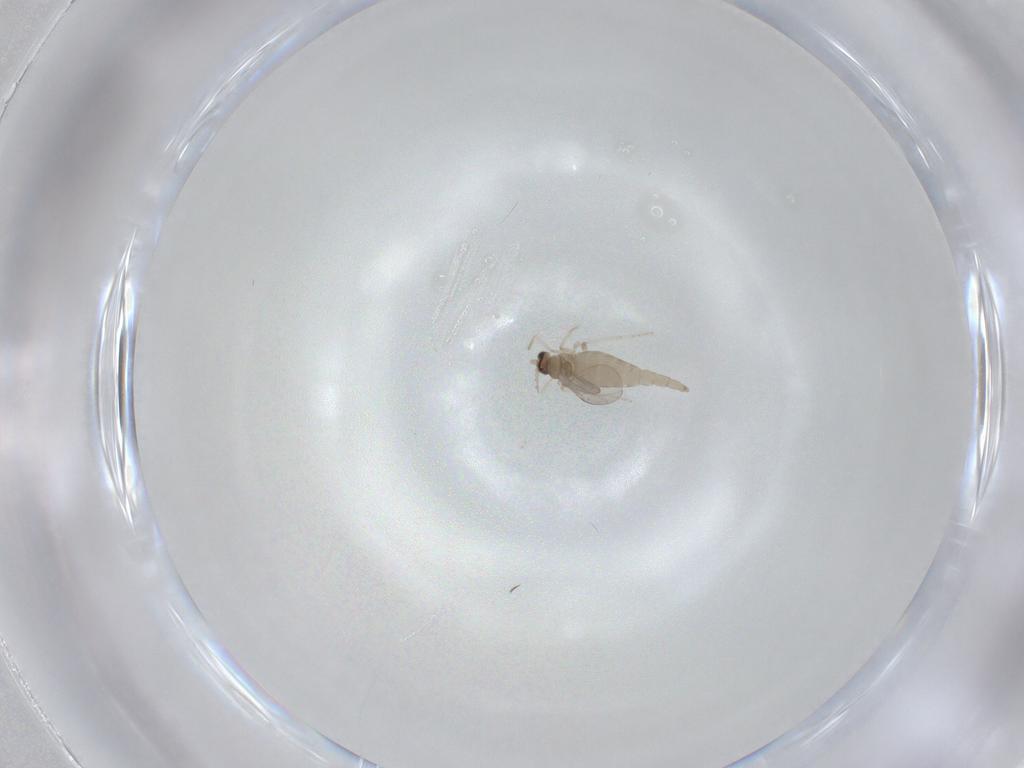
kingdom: Animalia
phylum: Arthropoda
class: Insecta
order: Diptera
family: Cecidomyiidae
